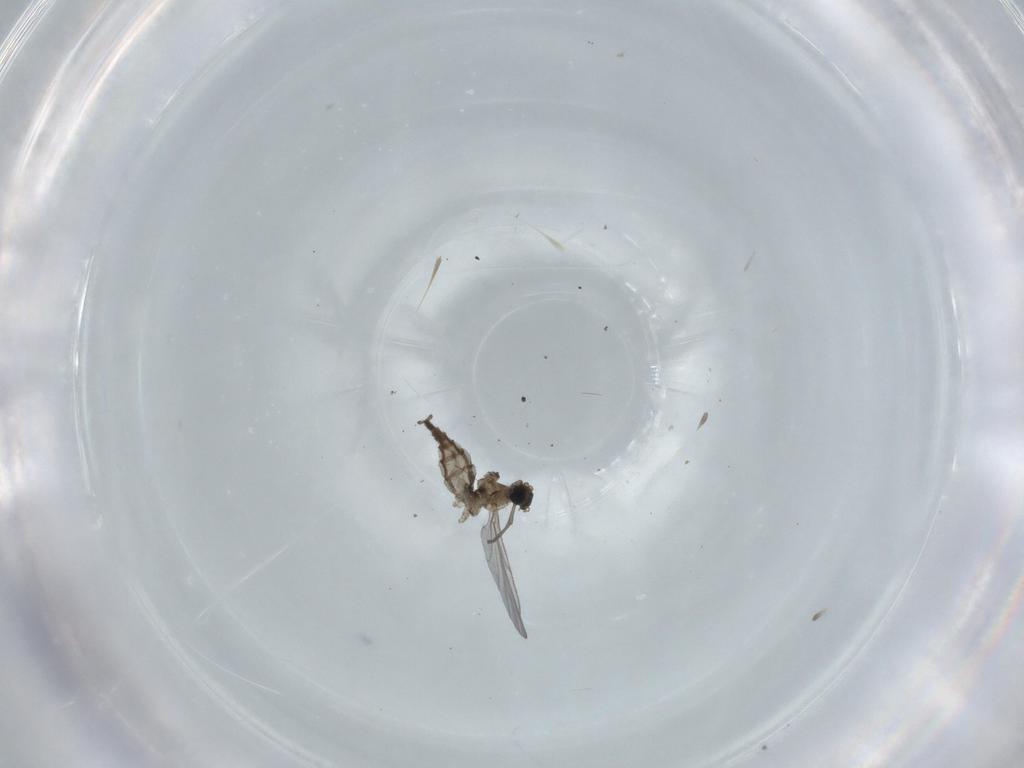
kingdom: Animalia
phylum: Arthropoda
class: Insecta
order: Diptera
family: Sciaridae
